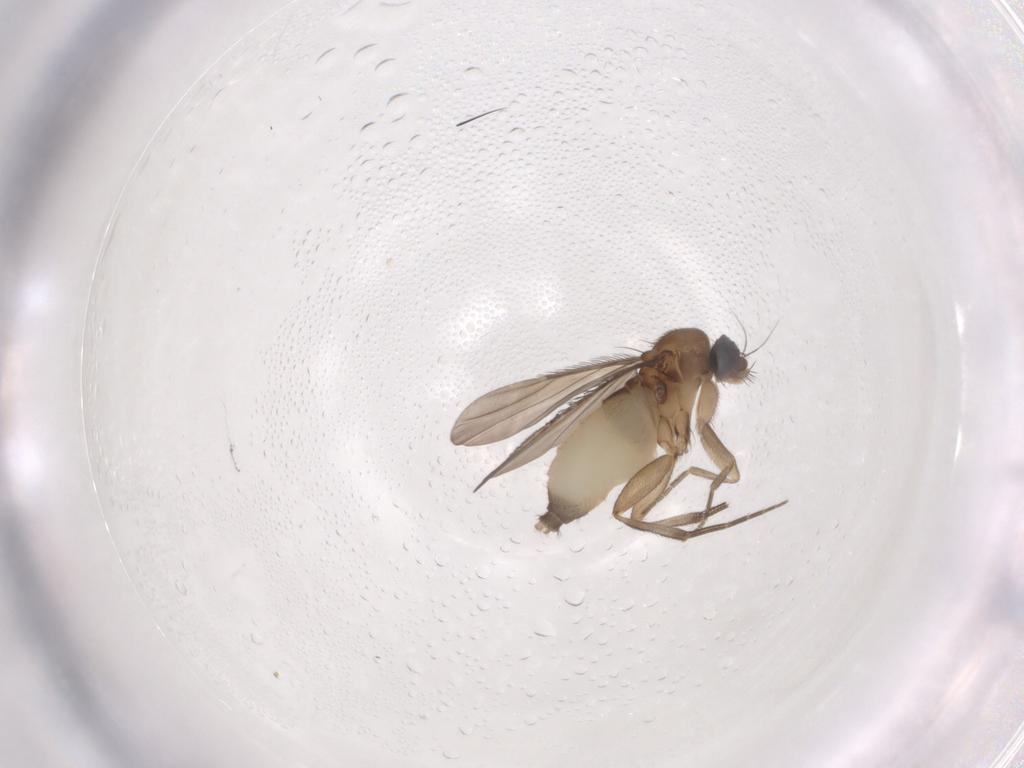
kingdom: Animalia
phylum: Arthropoda
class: Insecta
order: Diptera
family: Phoridae
